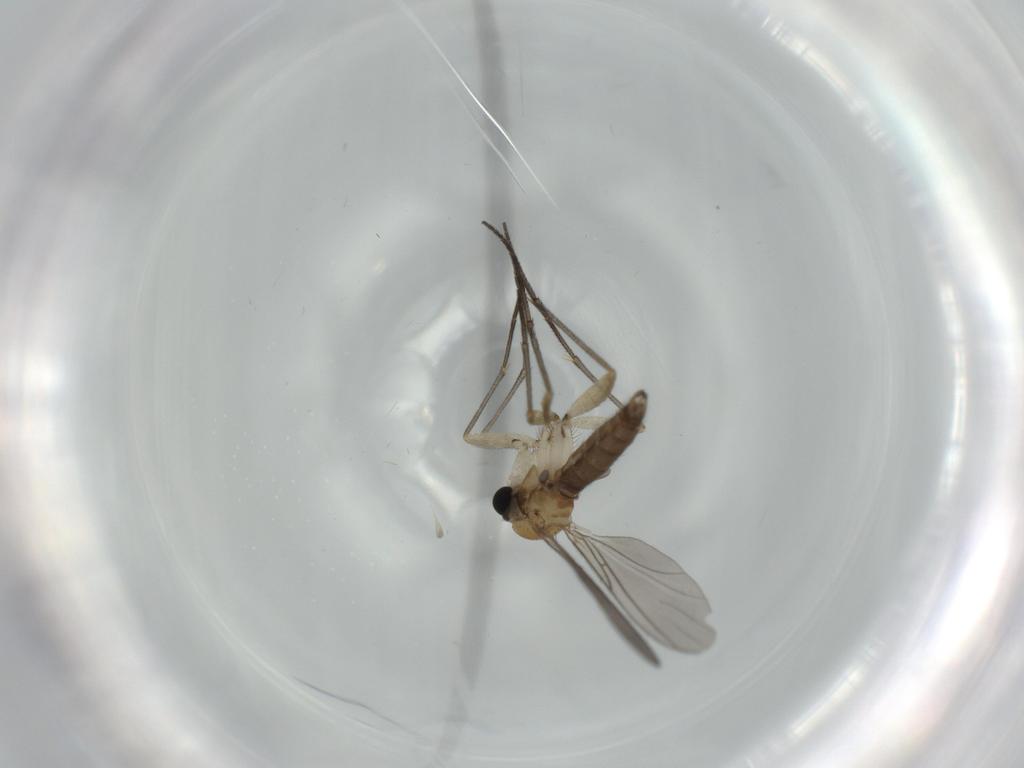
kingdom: Animalia
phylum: Arthropoda
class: Insecta
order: Diptera
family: Sciaridae
